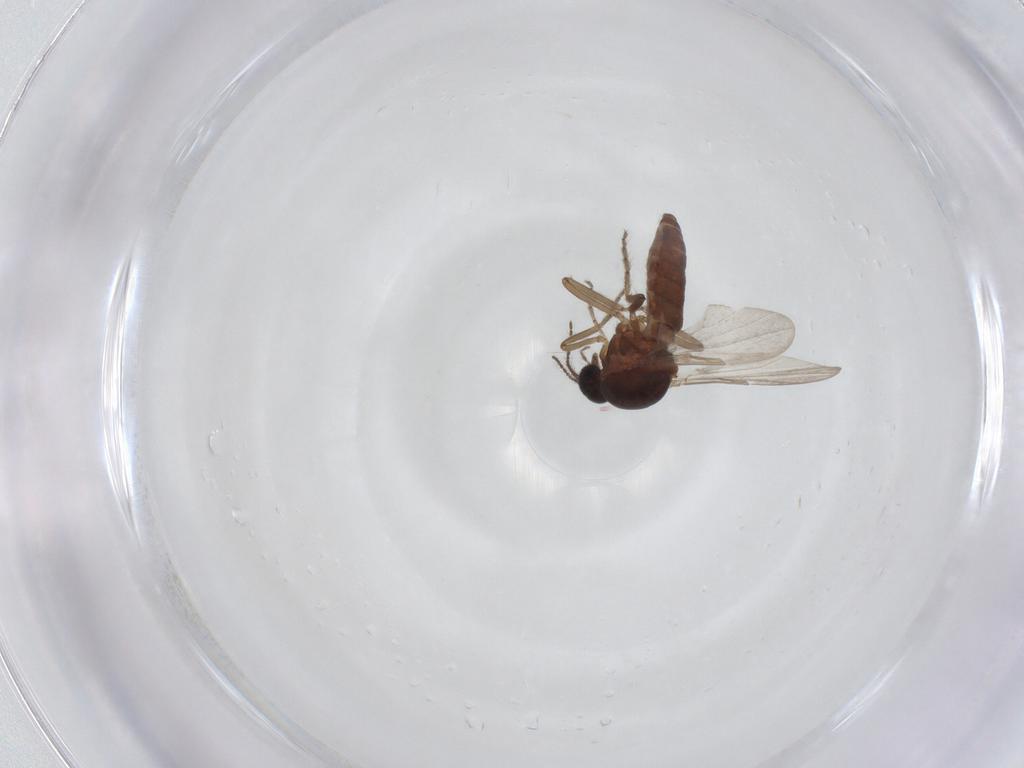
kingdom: Animalia
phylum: Arthropoda
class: Insecta
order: Diptera
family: Ceratopogonidae
